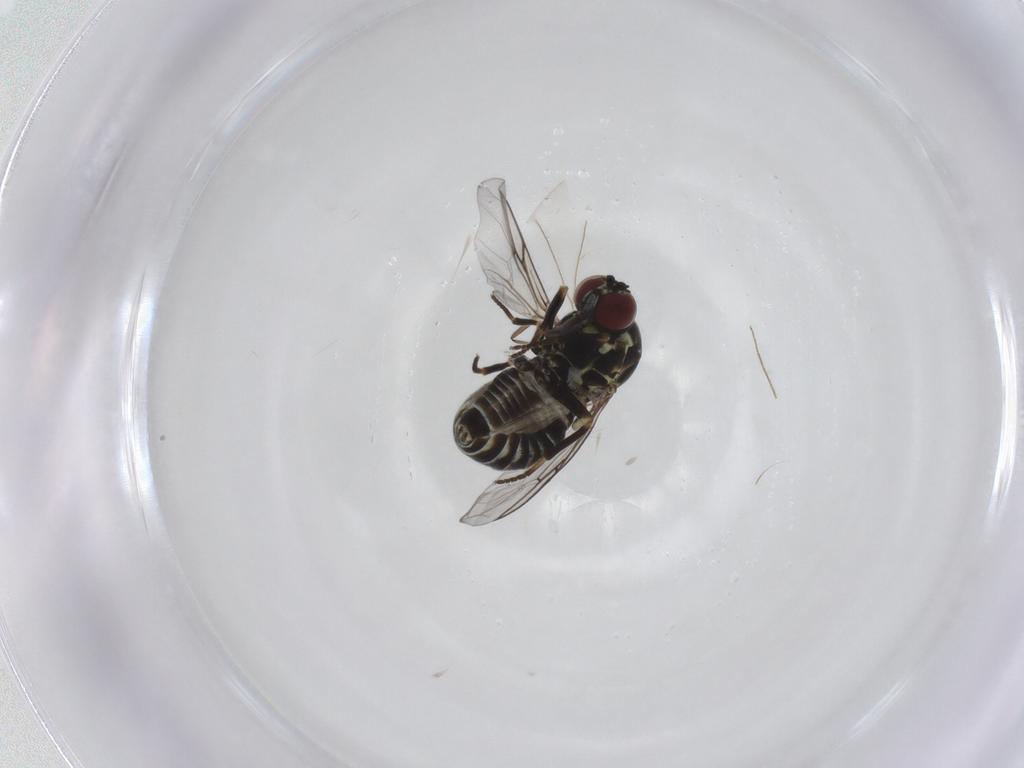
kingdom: Animalia
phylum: Arthropoda
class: Insecta
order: Diptera
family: Mythicomyiidae
